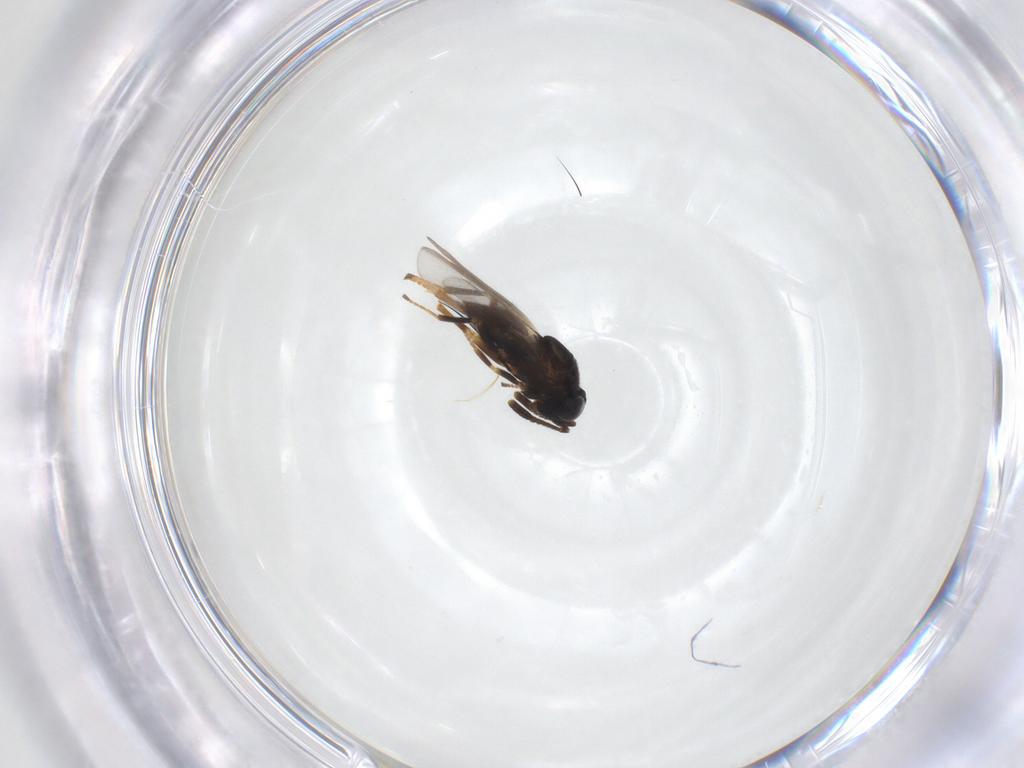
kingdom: Animalia
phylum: Arthropoda
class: Insecta
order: Hymenoptera
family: Encyrtidae
